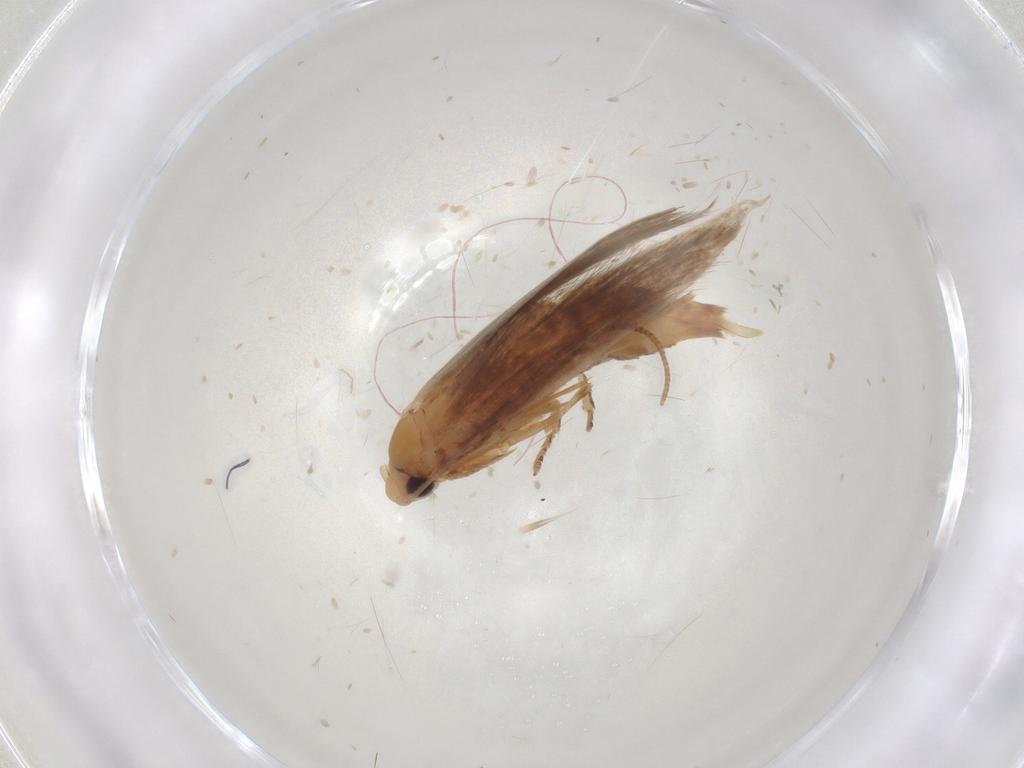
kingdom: Animalia
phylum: Arthropoda
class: Insecta
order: Lepidoptera
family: Tineidae
